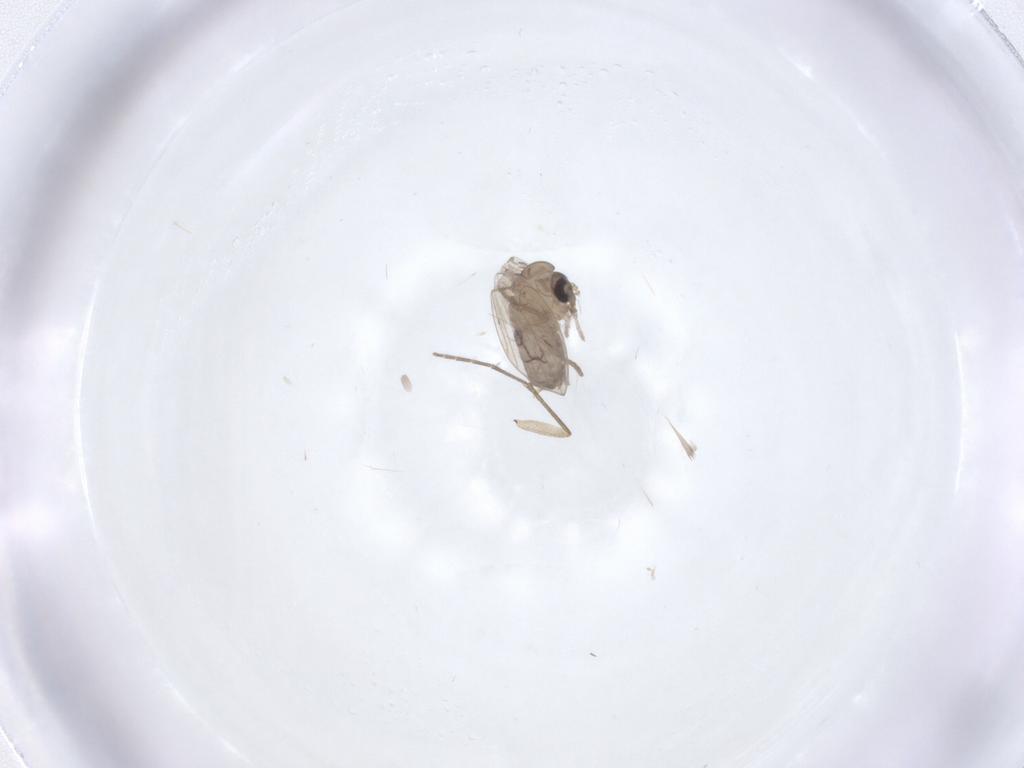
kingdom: Animalia
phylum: Arthropoda
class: Insecta
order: Diptera
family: Psychodidae
